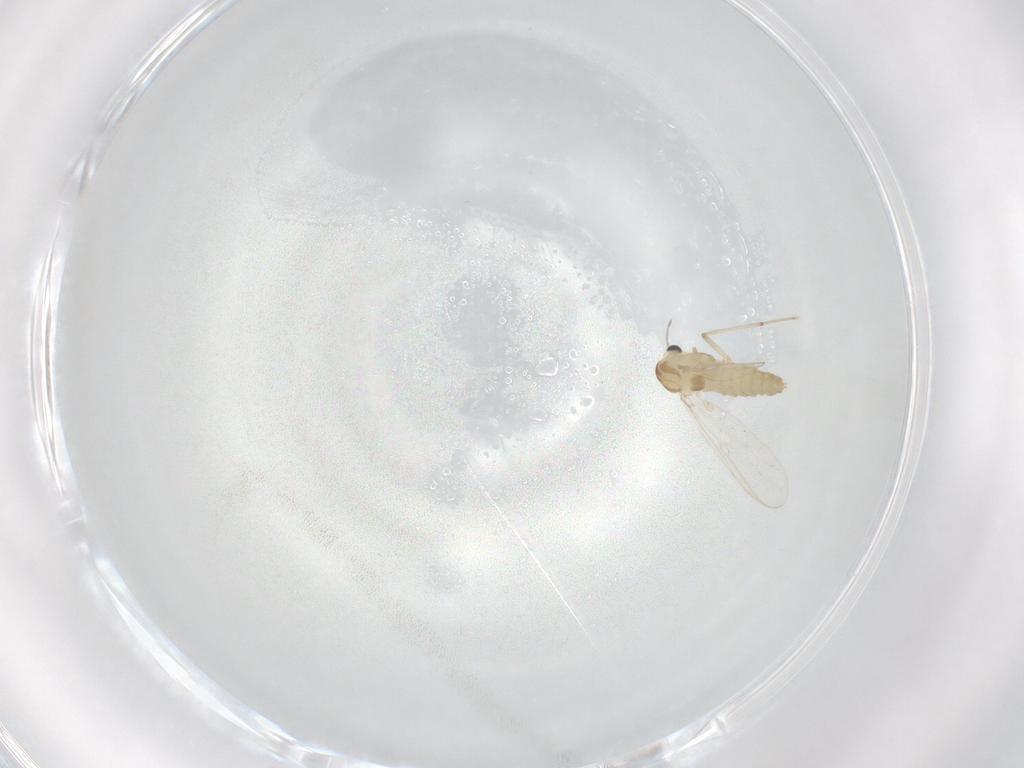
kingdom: Animalia
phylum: Arthropoda
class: Insecta
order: Diptera
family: Chironomidae
